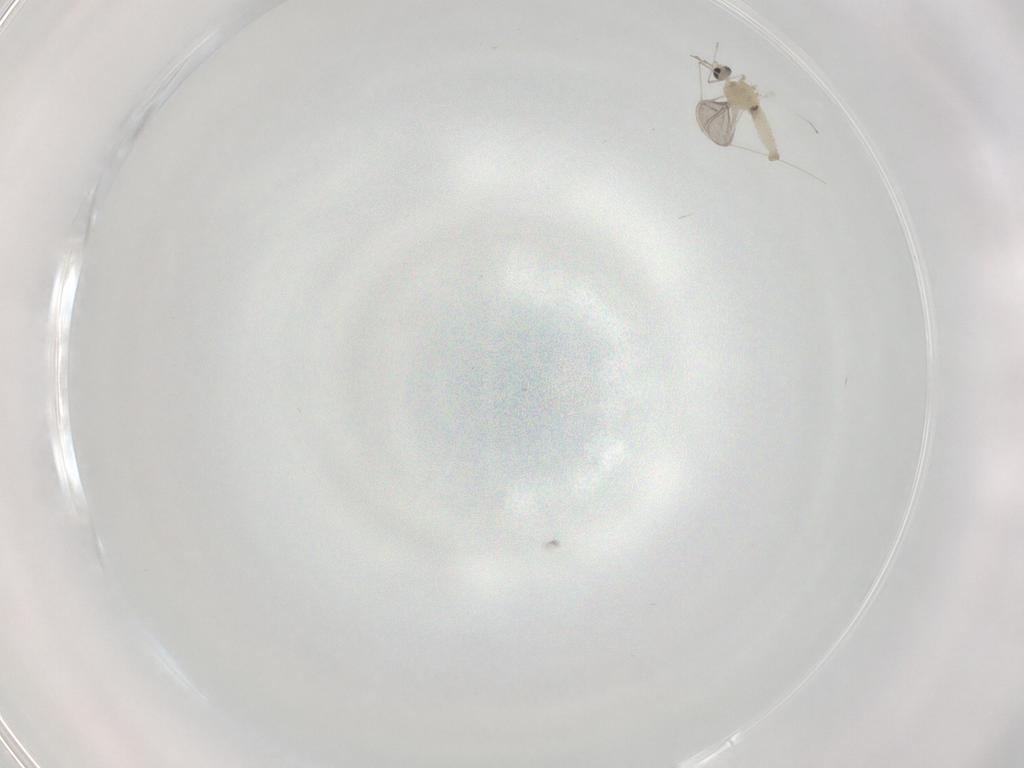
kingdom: Animalia
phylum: Arthropoda
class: Insecta
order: Diptera
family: Cecidomyiidae
